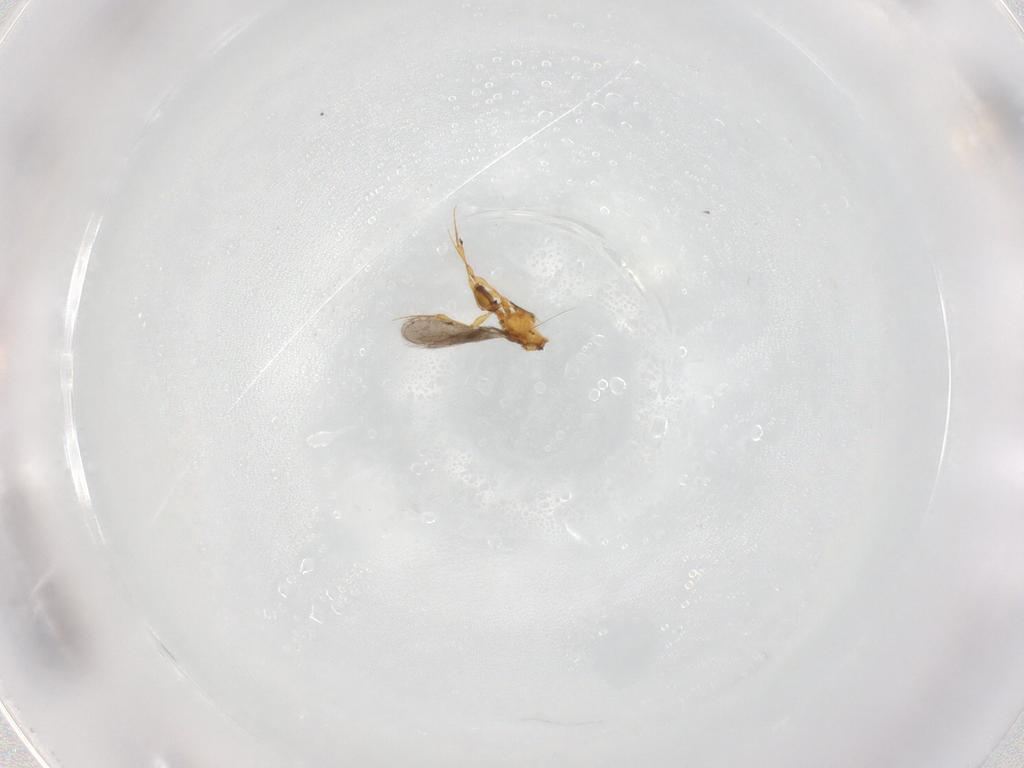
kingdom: Animalia
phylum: Arthropoda
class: Insecta
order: Hymenoptera
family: Platygastridae
